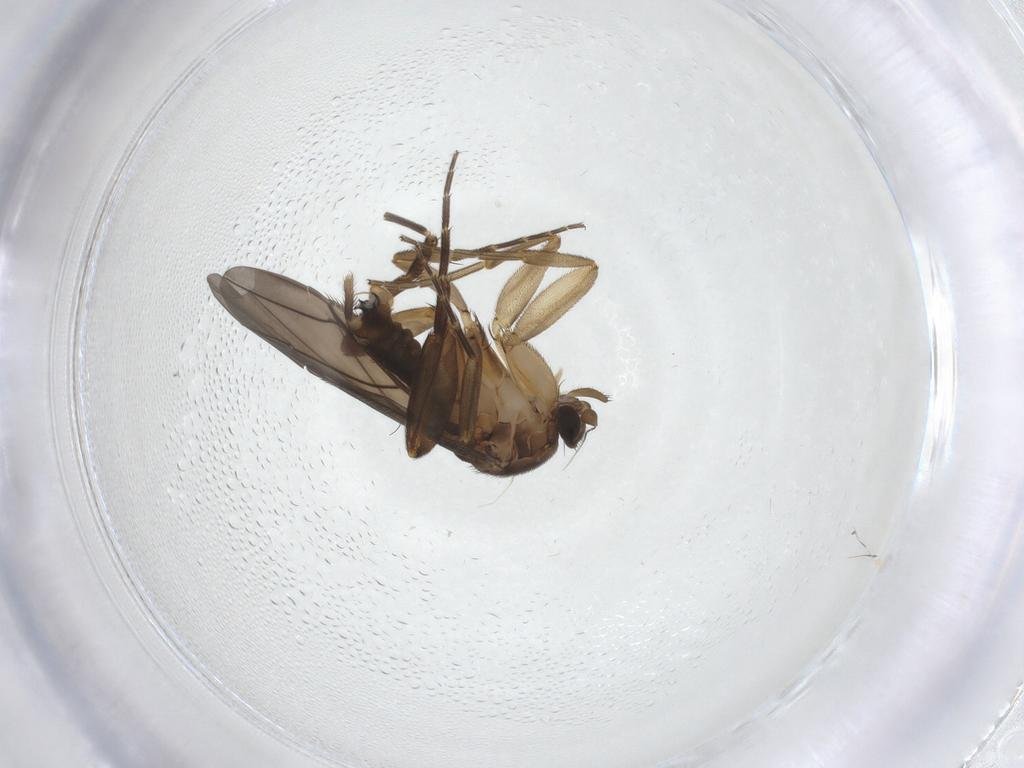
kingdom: Animalia
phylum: Arthropoda
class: Insecta
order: Diptera
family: Phoridae
